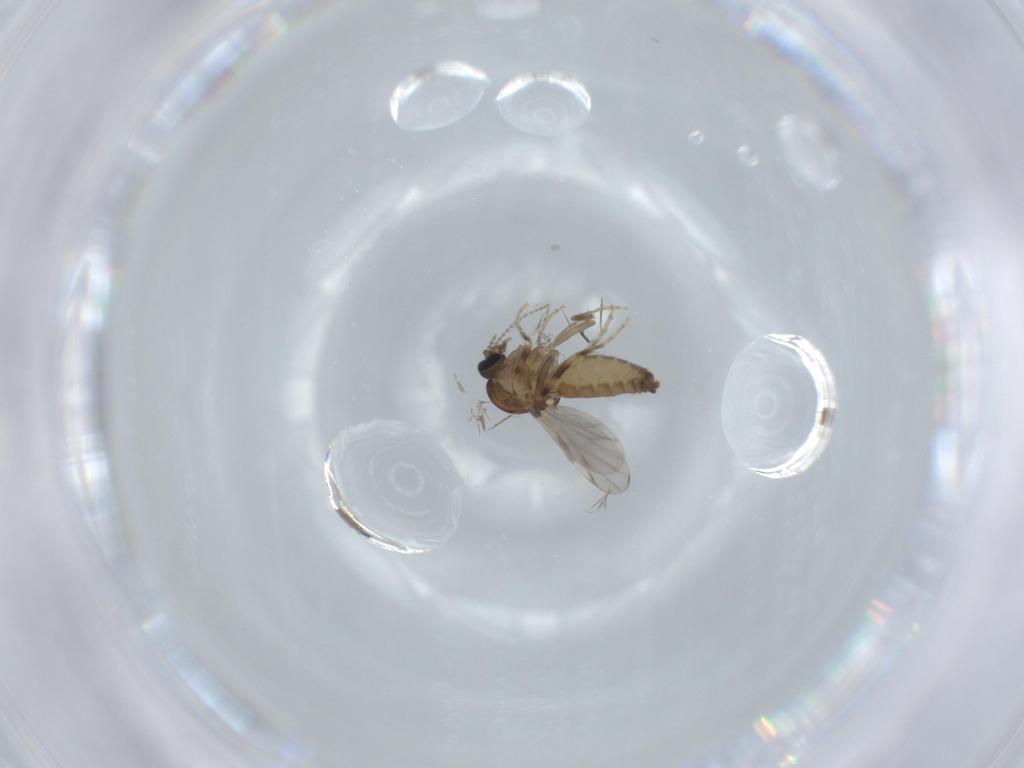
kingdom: Animalia
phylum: Arthropoda
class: Insecta
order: Diptera
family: Ceratopogonidae
